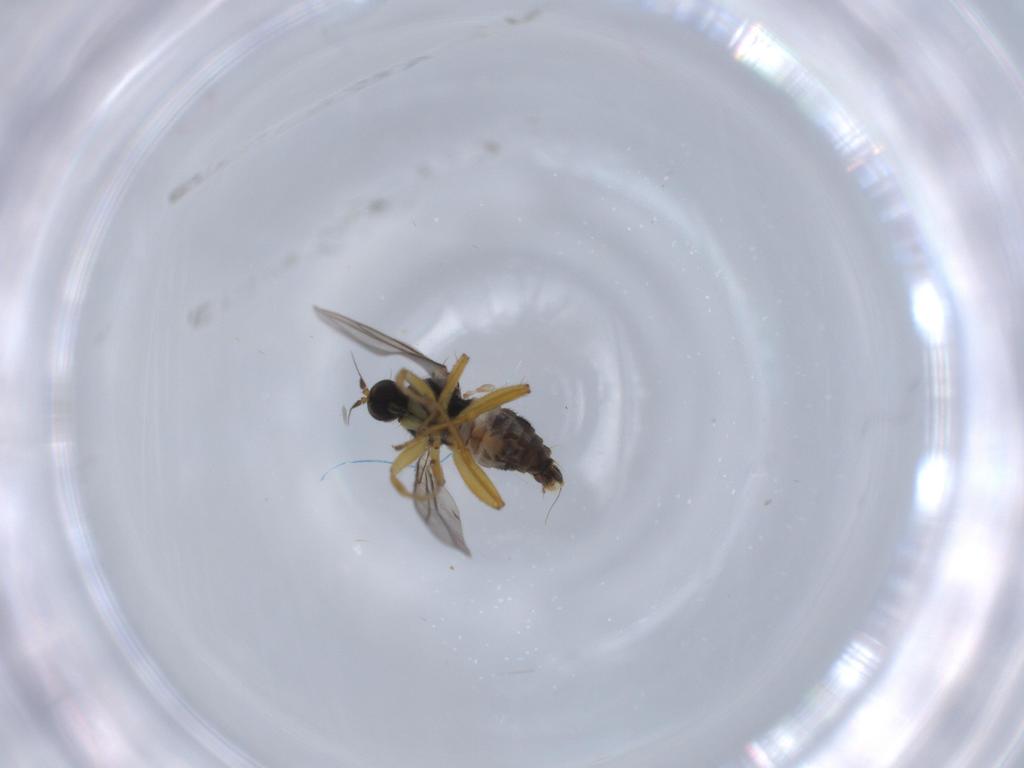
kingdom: Animalia
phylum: Arthropoda
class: Insecta
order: Diptera
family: Hybotidae
